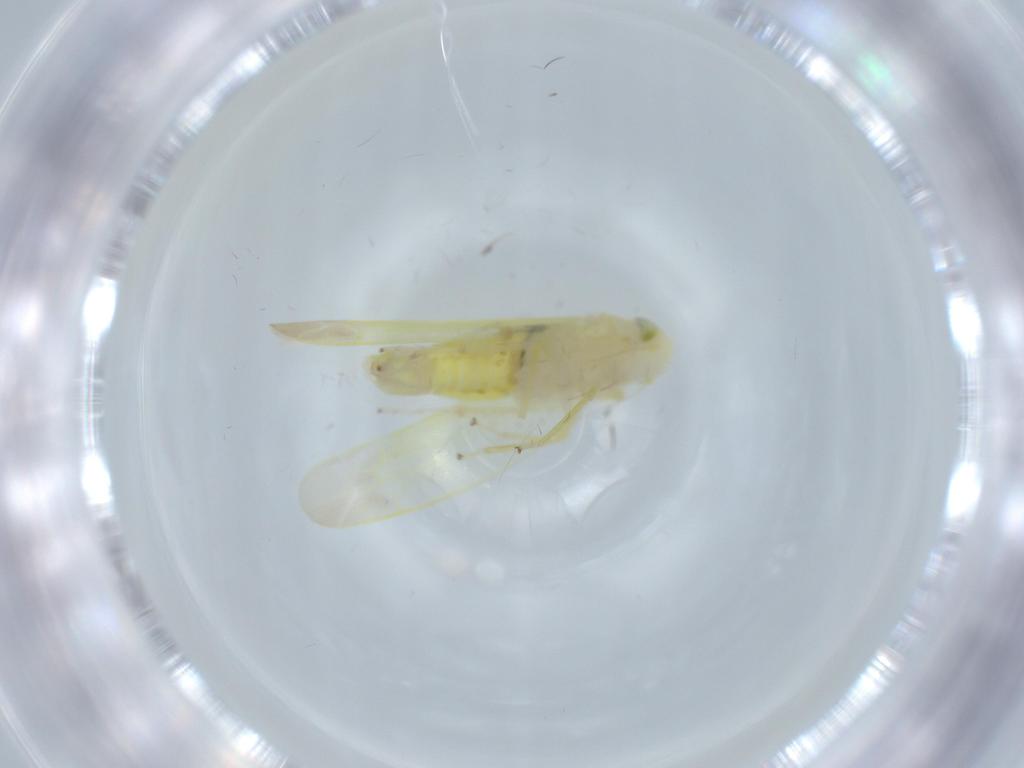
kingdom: Animalia
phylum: Arthropoda
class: Insecta
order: Hemiptera
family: Cicadellidae
